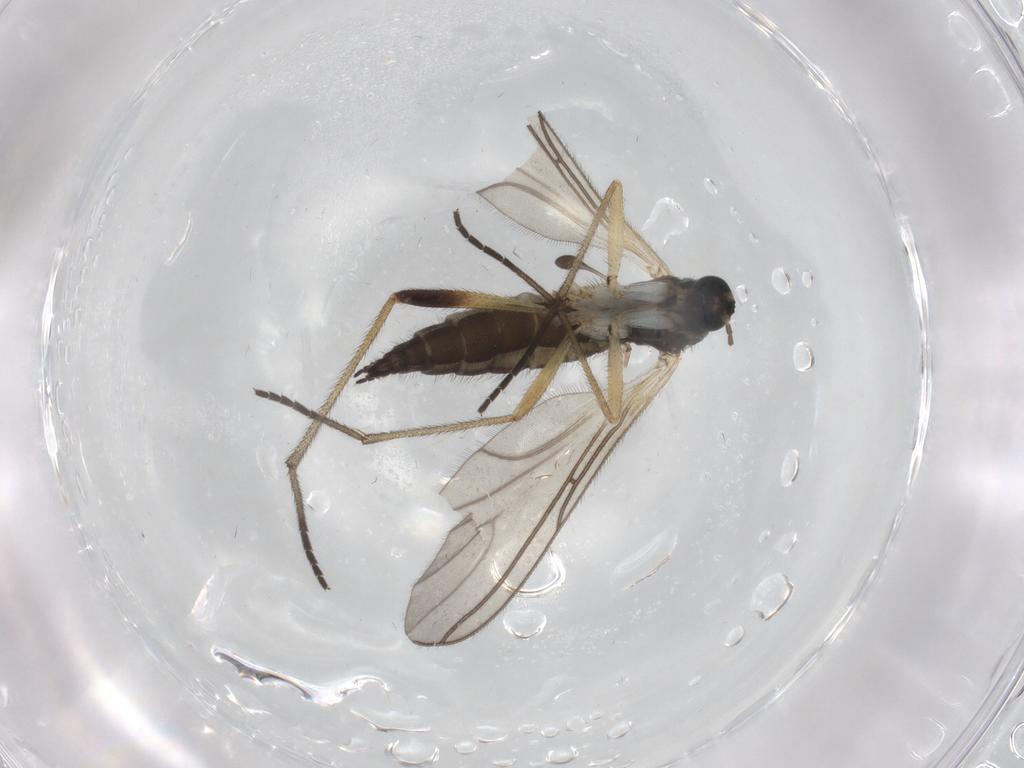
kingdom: Animalia
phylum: Arthropoda
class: Insecta
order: Diptera
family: Sciaridae
